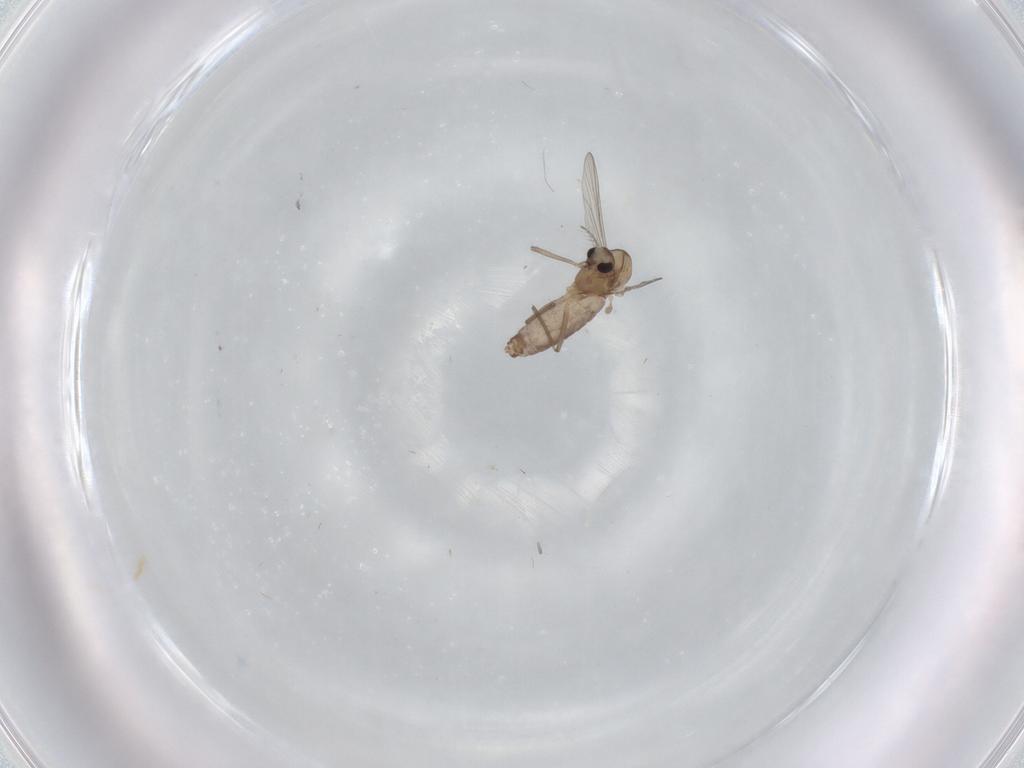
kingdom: Animalia
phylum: Arthropoda
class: Insecta
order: Diptera
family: Chironomidae
